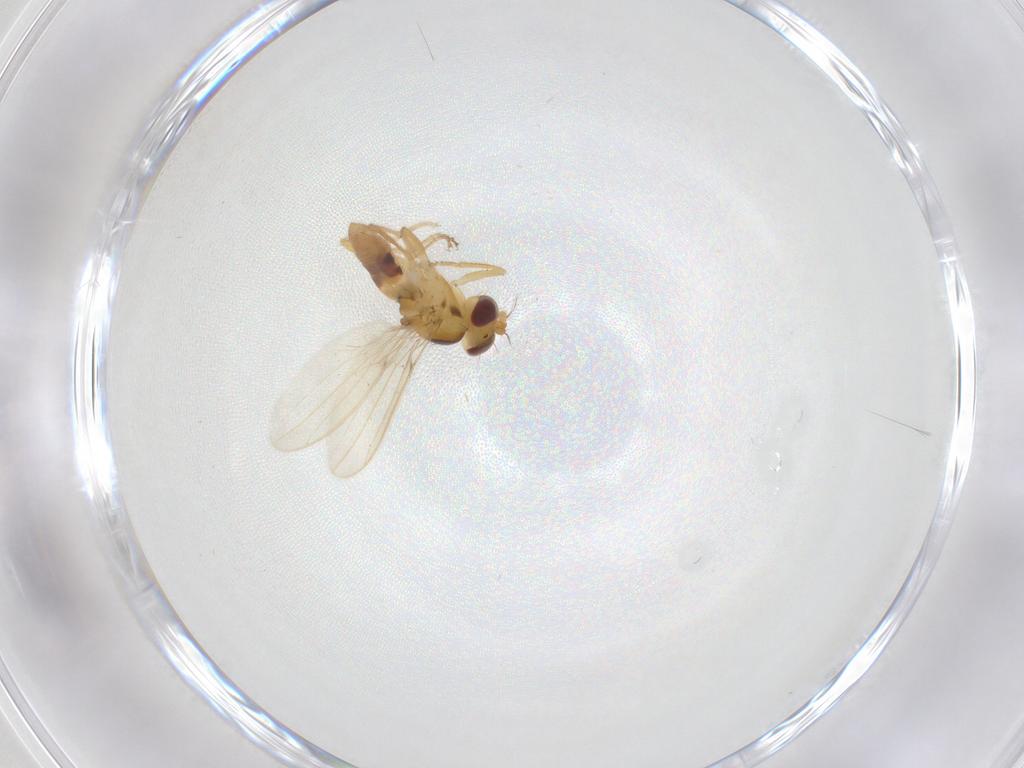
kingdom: Animalia
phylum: Arthropoda
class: Insecta
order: Diptera
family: Periscelididae
